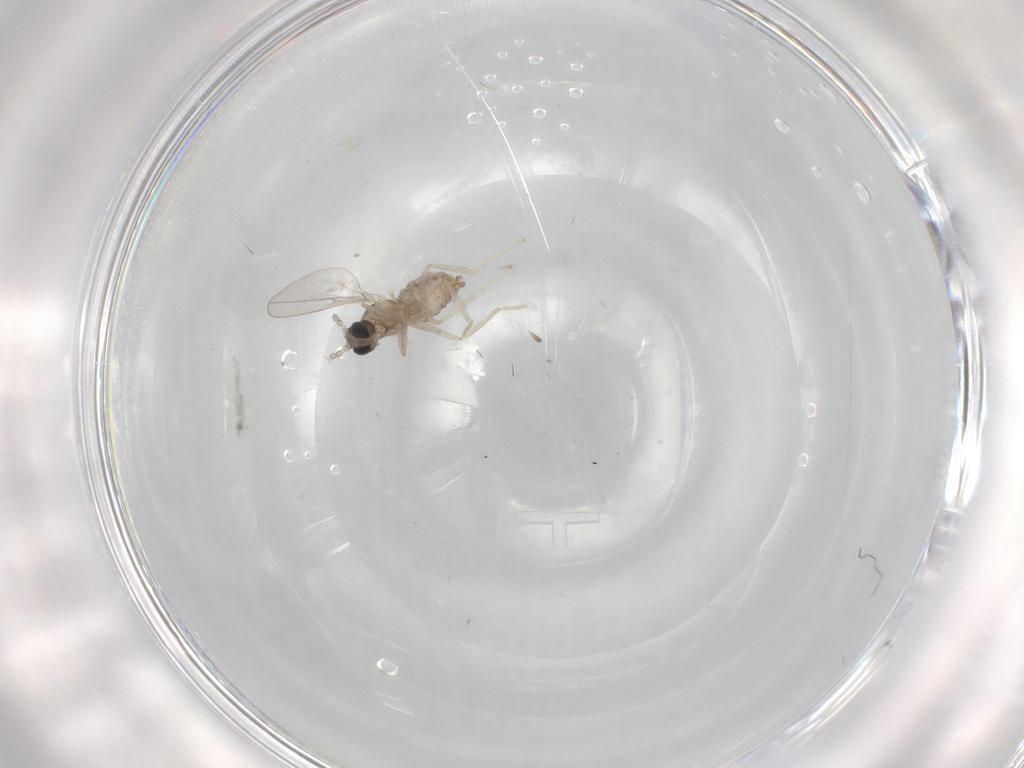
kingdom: Animalia
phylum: Arthropoda
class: Insecta
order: Diptera
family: Cecidomyiidae
